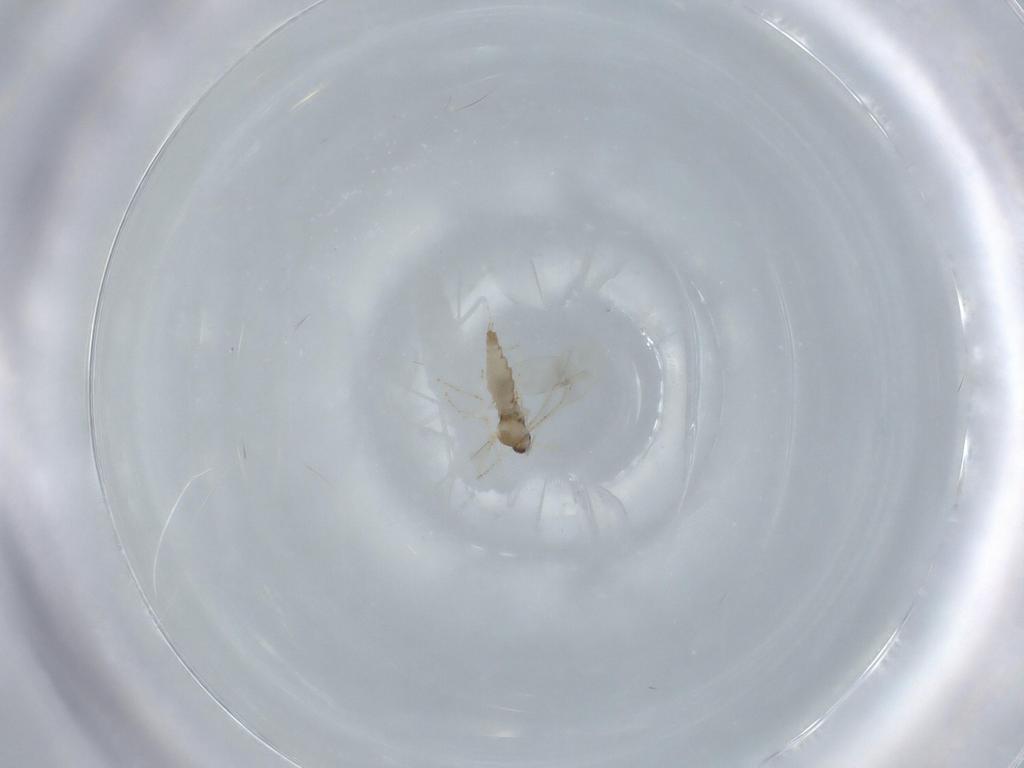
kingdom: Animalia
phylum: Arthropoda
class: Insecta
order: Diptera
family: Cecidomyiidae
